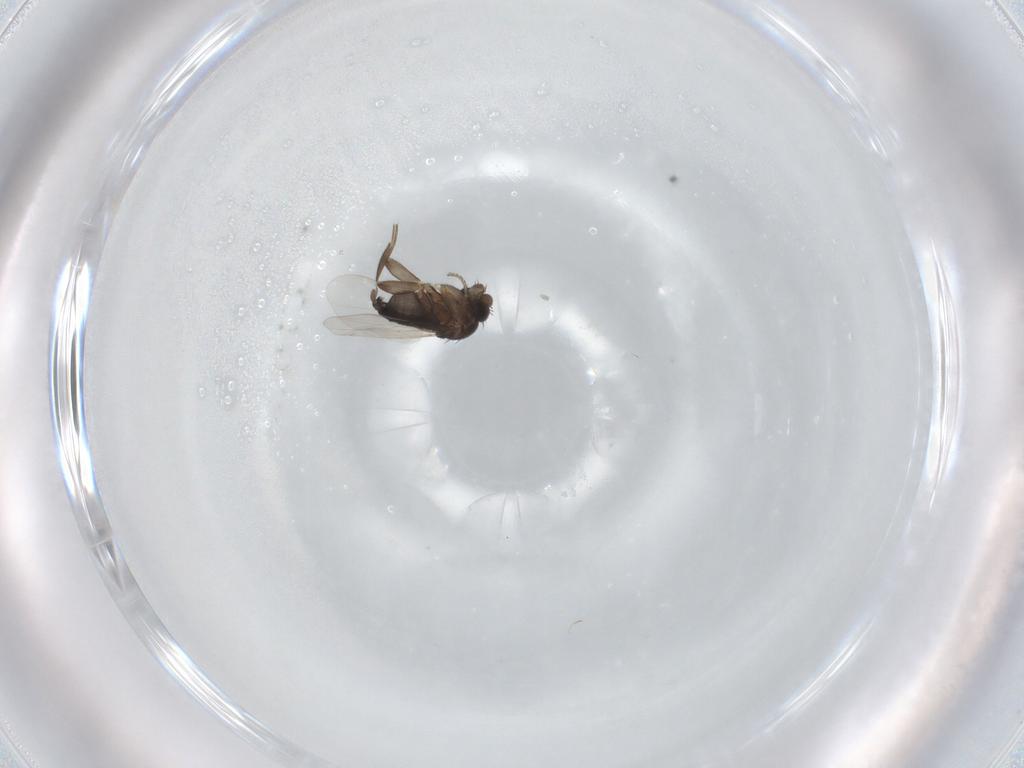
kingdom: Animalia
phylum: Arthropoda
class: Insecta
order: Diptera
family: Phoridae
